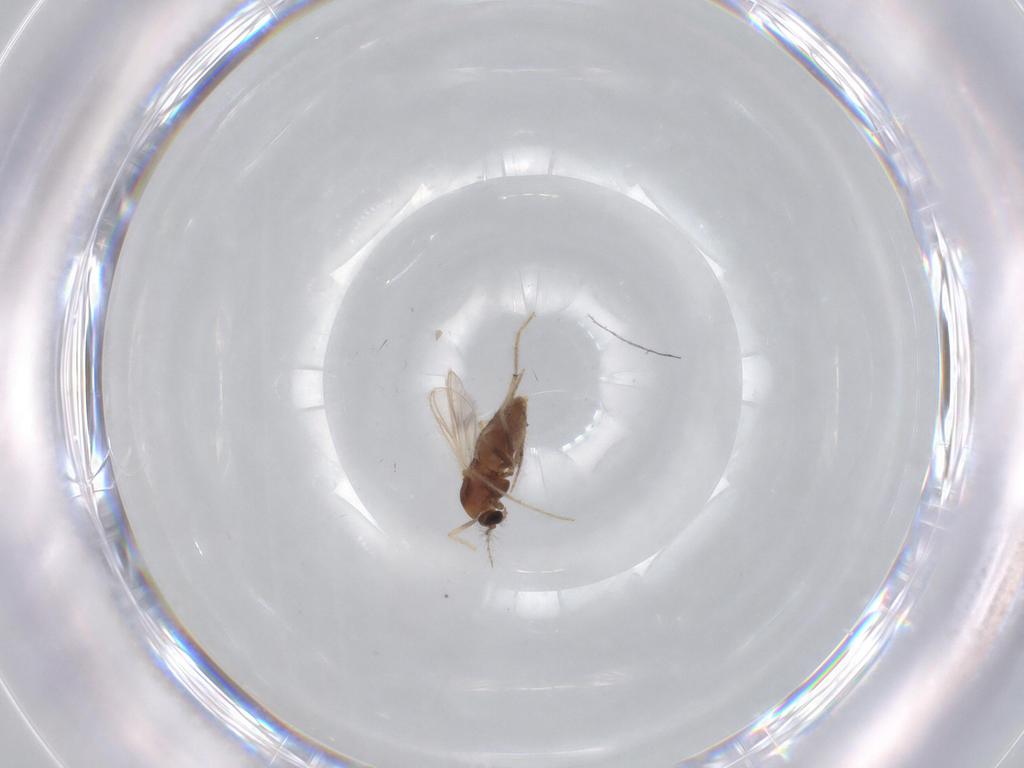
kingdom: Animalia
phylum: Arthropoda
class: Insecta
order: Diptera
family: Chironomidae
